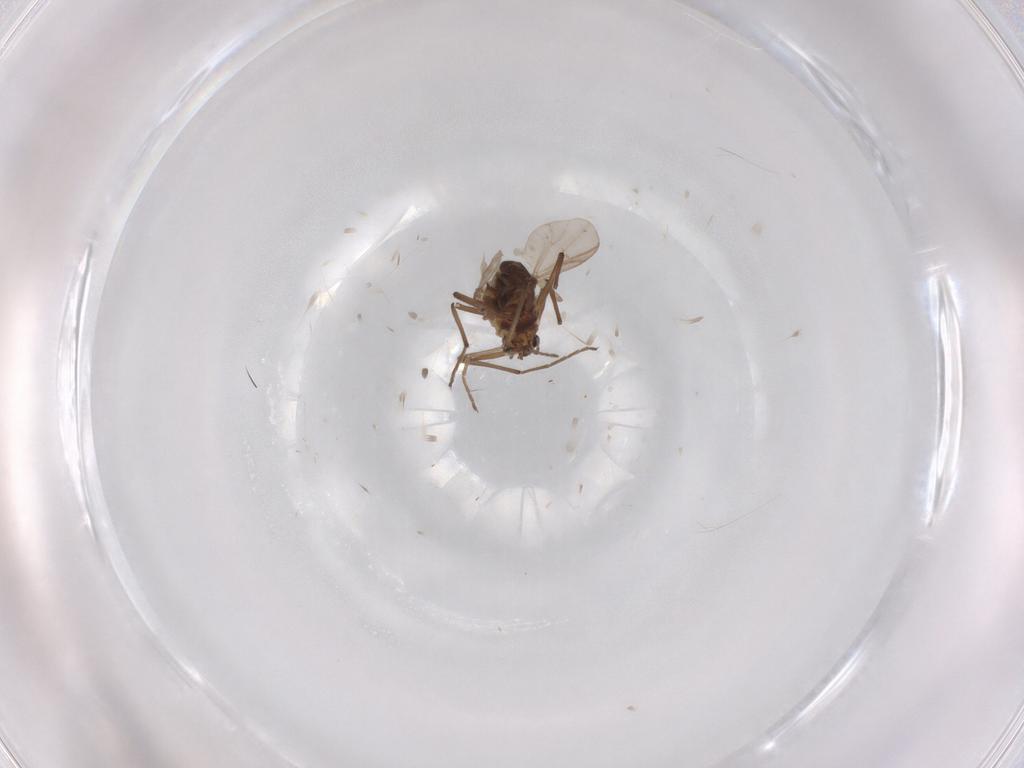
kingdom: Animalia
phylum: Arthropoda
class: Insecta
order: Diptera
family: Chironomidae
